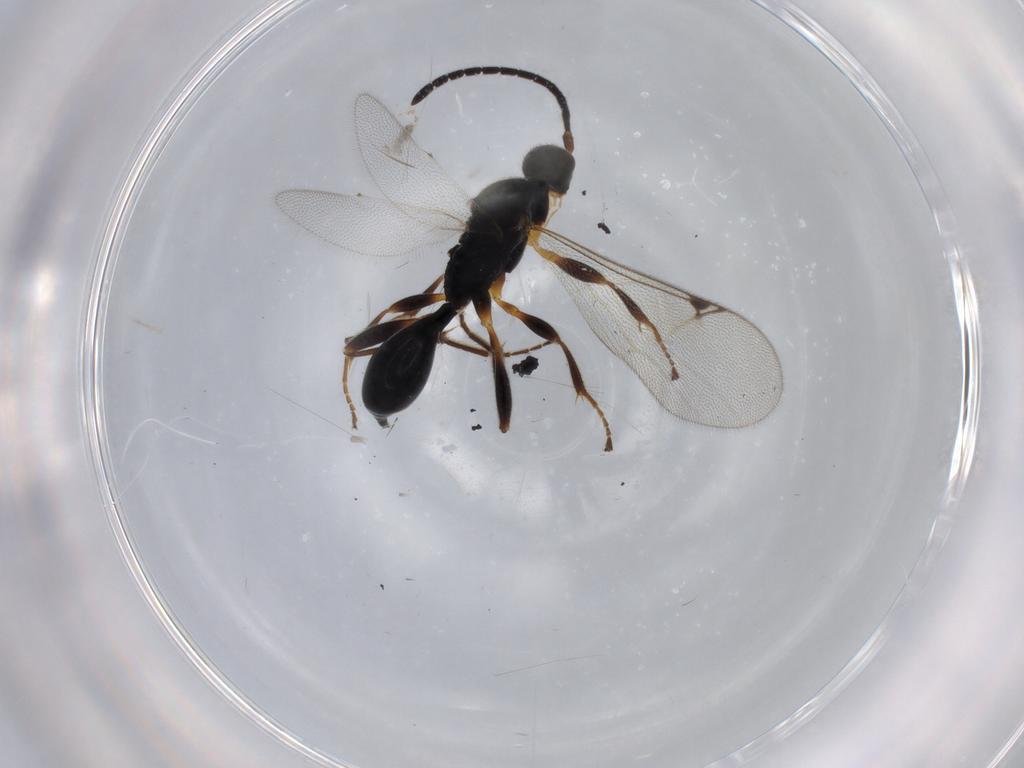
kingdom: Animalia
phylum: Arthropoda
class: Insecta
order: Hymenoptera
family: Proctotrupidae
